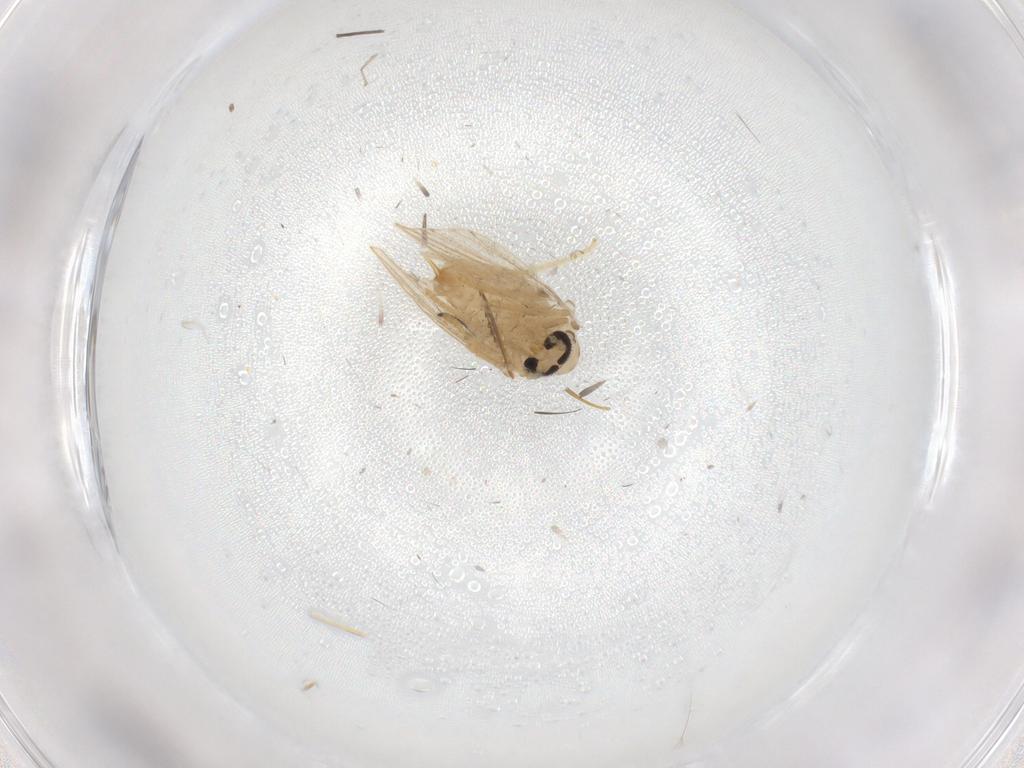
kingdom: Animalia
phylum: Arthropoda
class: Insecta
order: Diptera
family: Psychodidae
